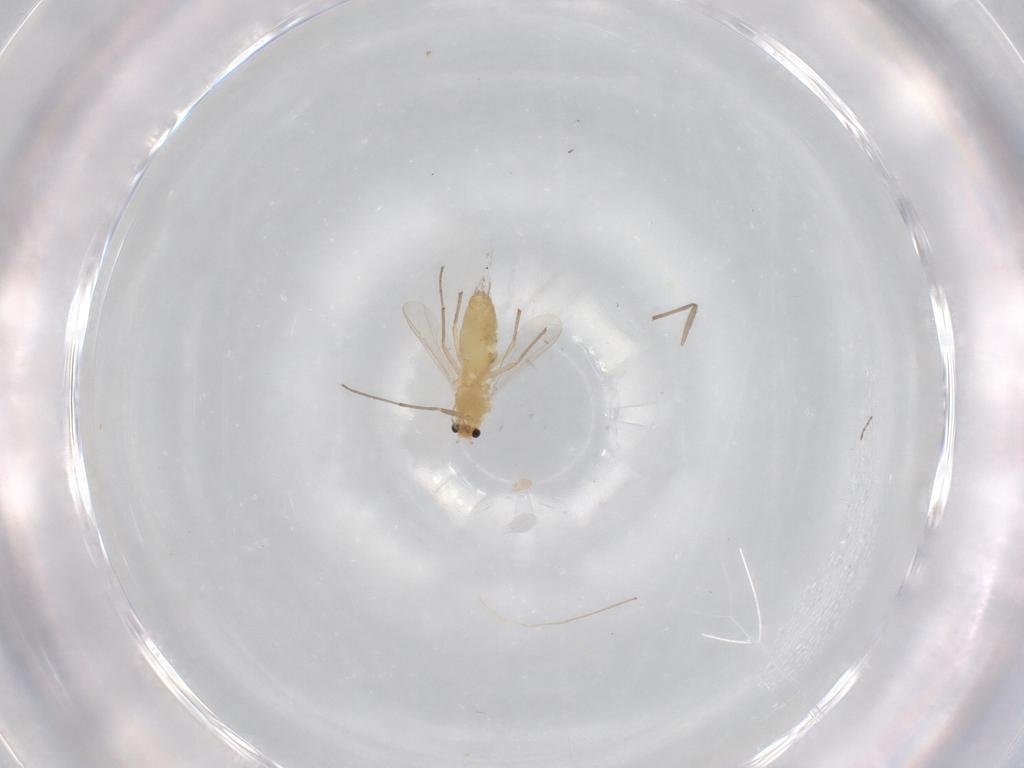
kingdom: Animalia
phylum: Arthropoda
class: Insecta
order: Diptera
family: Chironomidae
